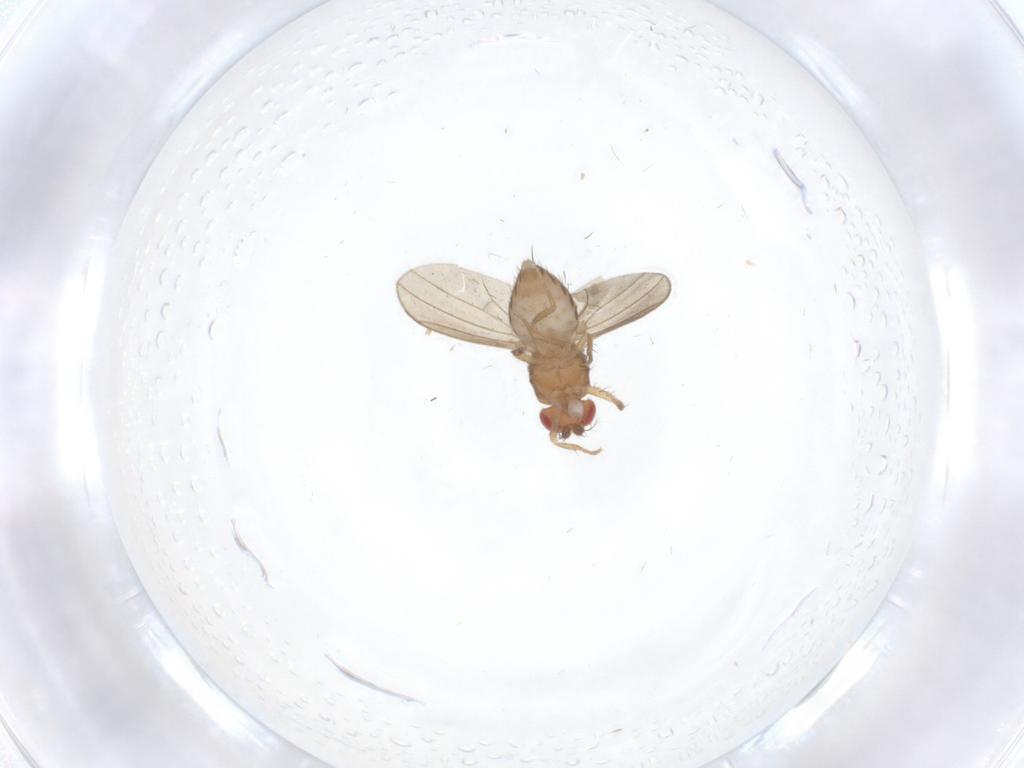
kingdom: Animalia
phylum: Arthropoda
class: Insecta
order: Diptera
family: Drosophilidae
